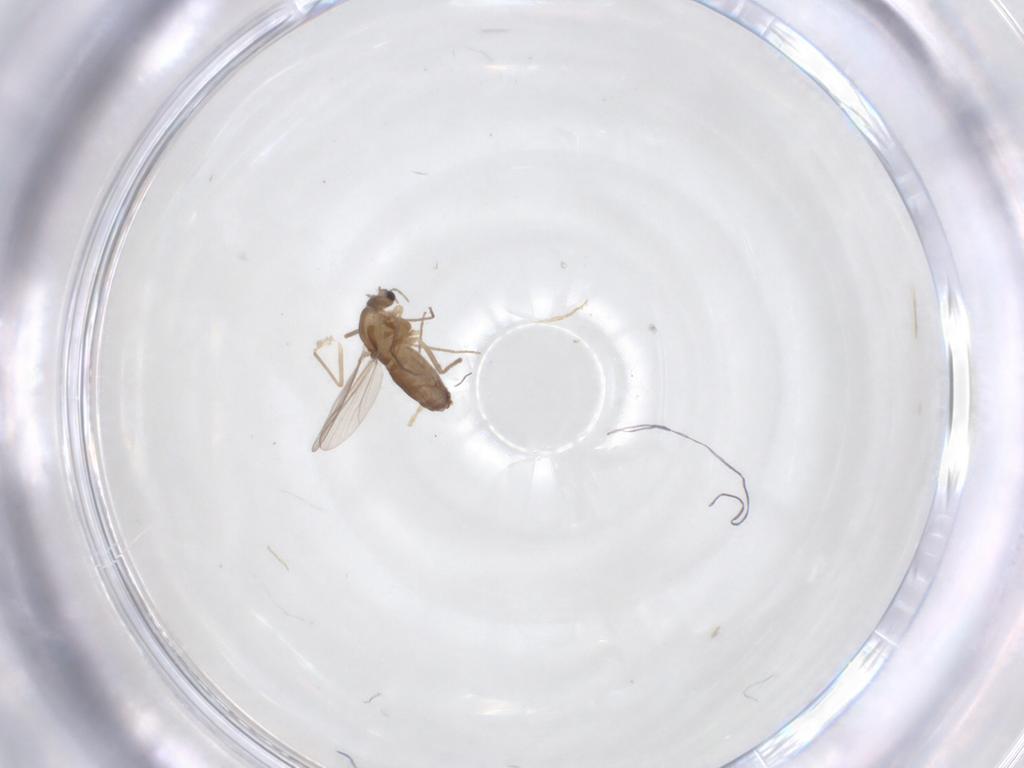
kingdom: Animalia
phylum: Arthropoda
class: Insecta
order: Diptera
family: Chironomidae
